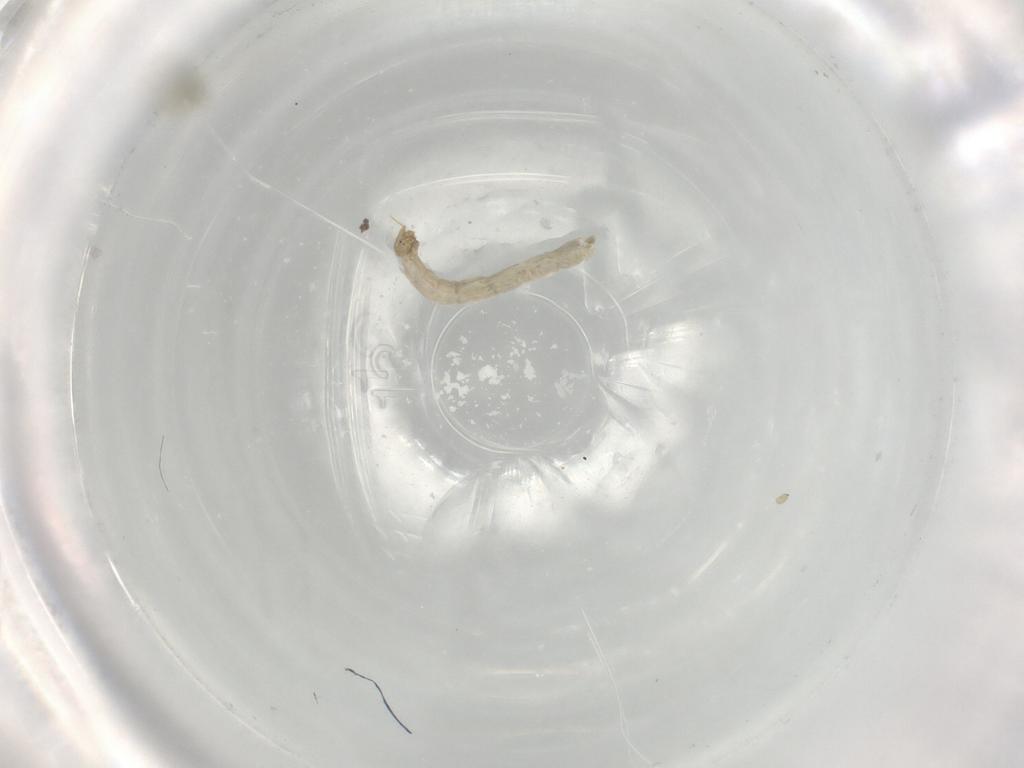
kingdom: Animalia
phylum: Arthropoda
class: Insecta
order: Diptera
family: Chironomidae
